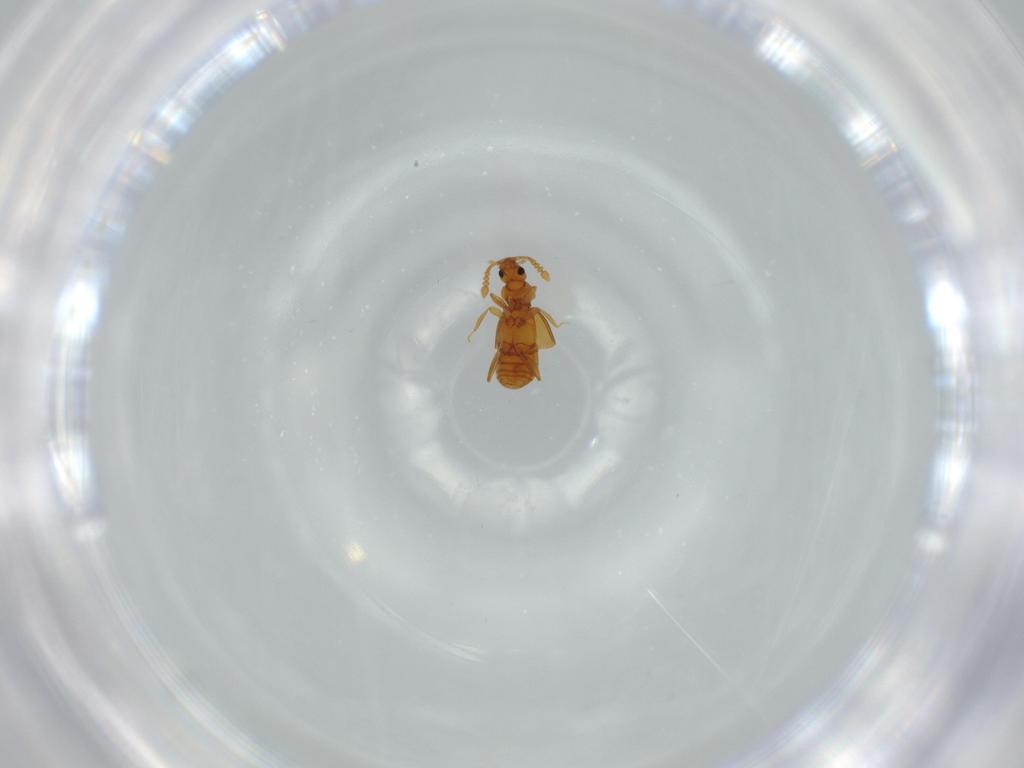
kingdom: Animalia
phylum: Arthropoda
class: Insecta
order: Coleoptera
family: Staphylinidae
